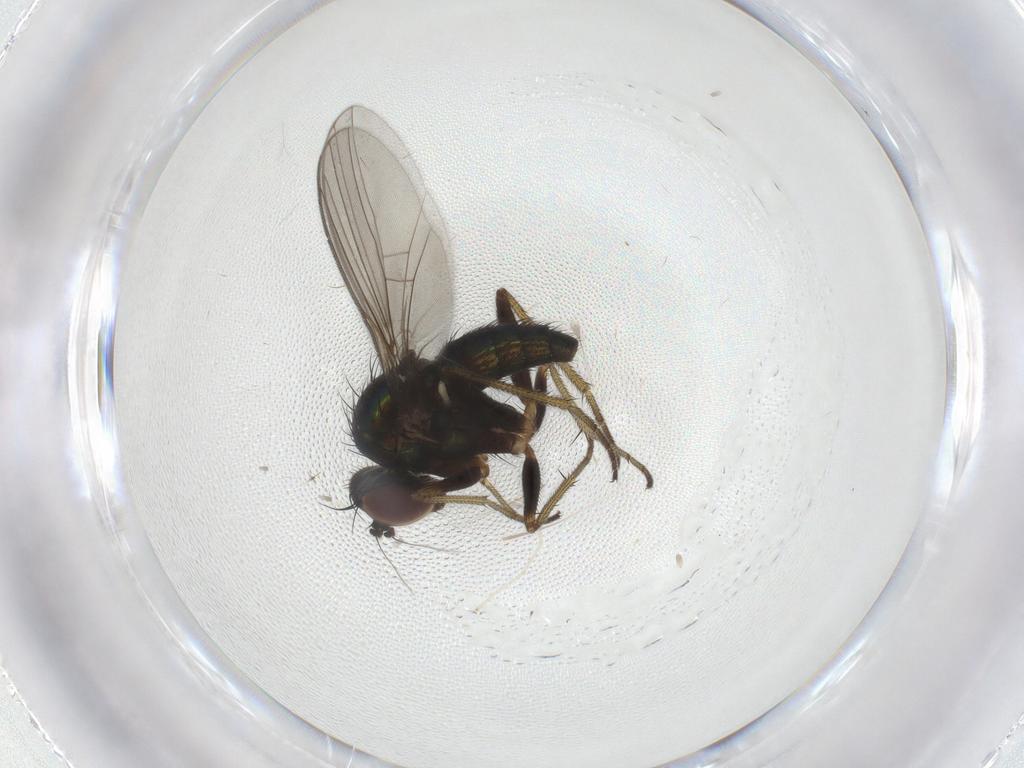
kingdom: Animalia
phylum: Arthropoda
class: Insecta
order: Diptera
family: Chironomidae
